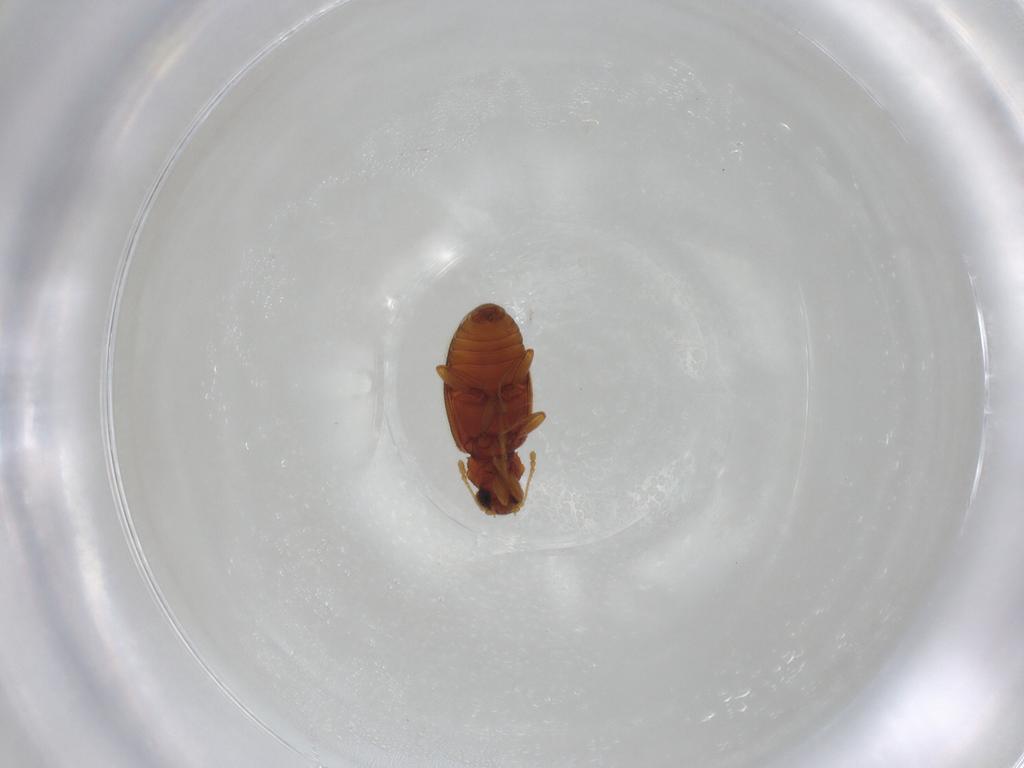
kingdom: Animalia
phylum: Arthropoda
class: Insecta
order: Coleoptera
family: Latridiidae
